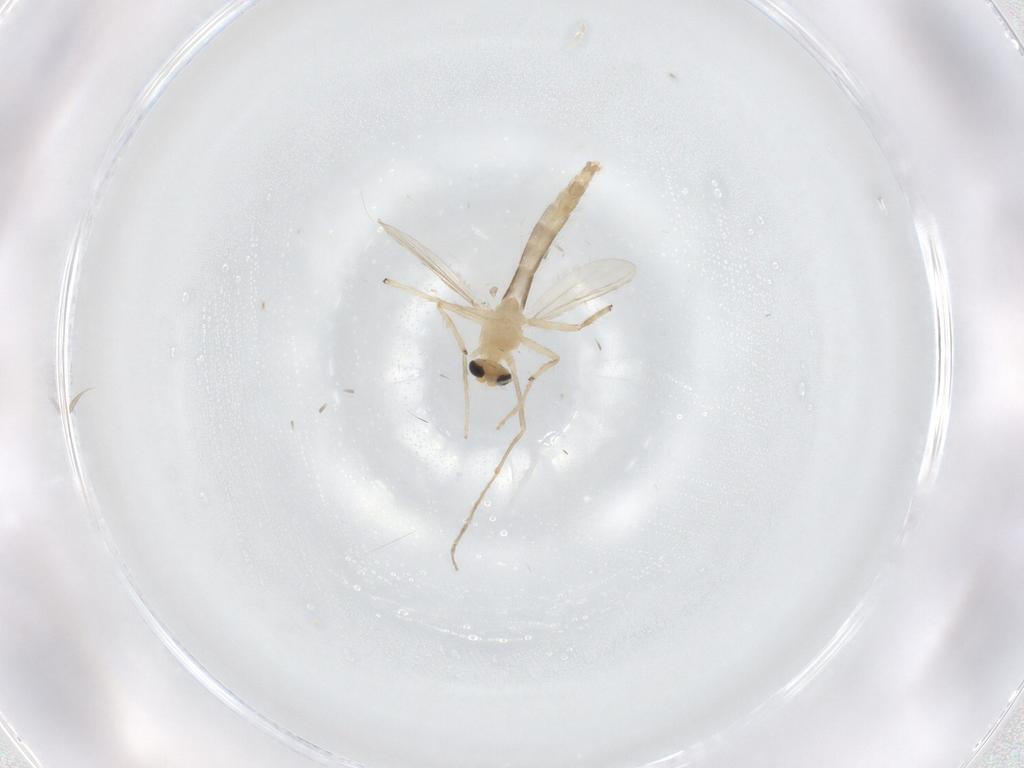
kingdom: Animalia
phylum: Arthropoda
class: Insecta
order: Diptera
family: Chironomidae
